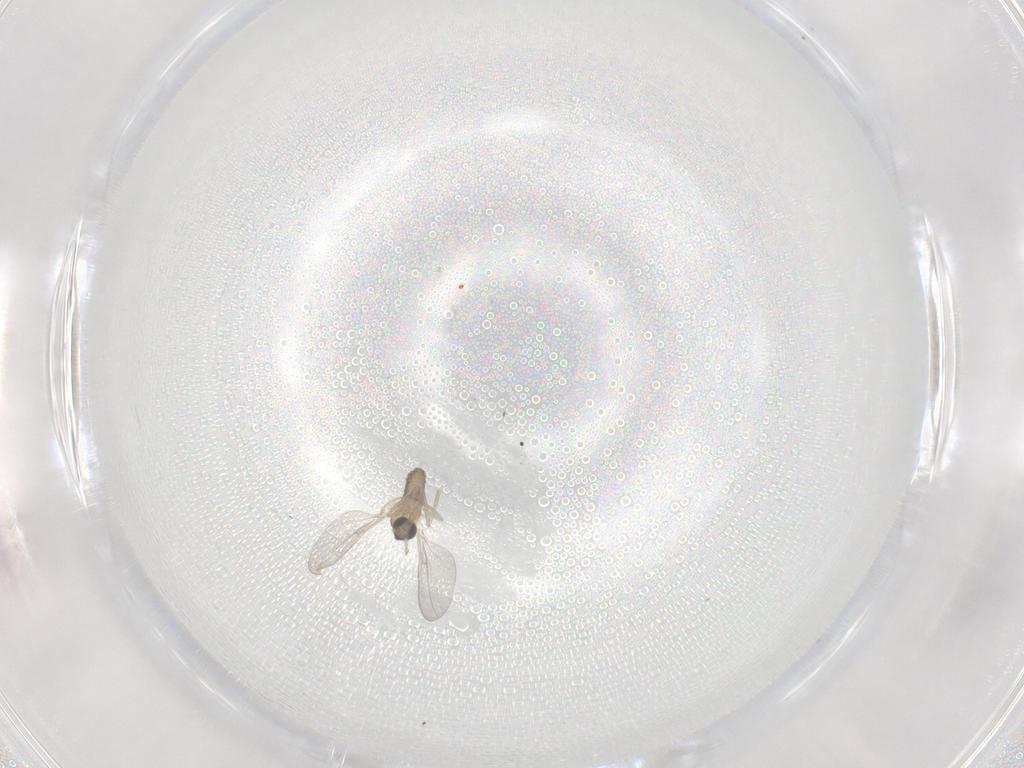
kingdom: Animalia
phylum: Arthropoda
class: Insecta
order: Diptera
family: Cecidomyiidae
